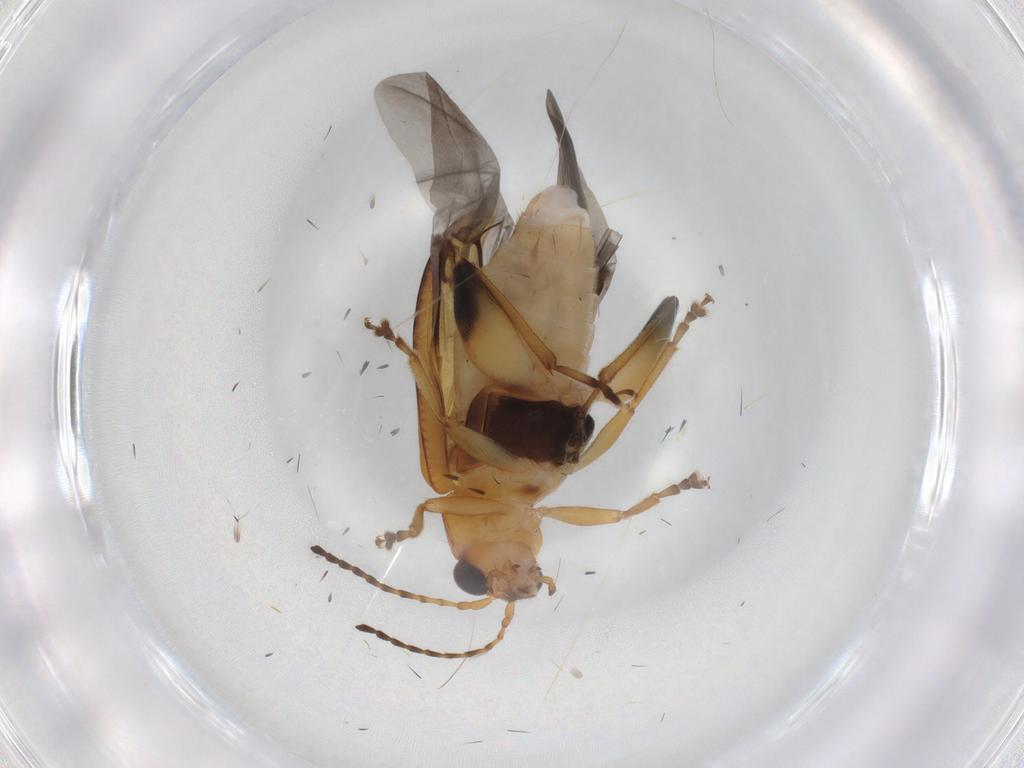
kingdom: Animalia
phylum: Arthropoda
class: Insecta
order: Coleoptera
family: Chrysomelidae
